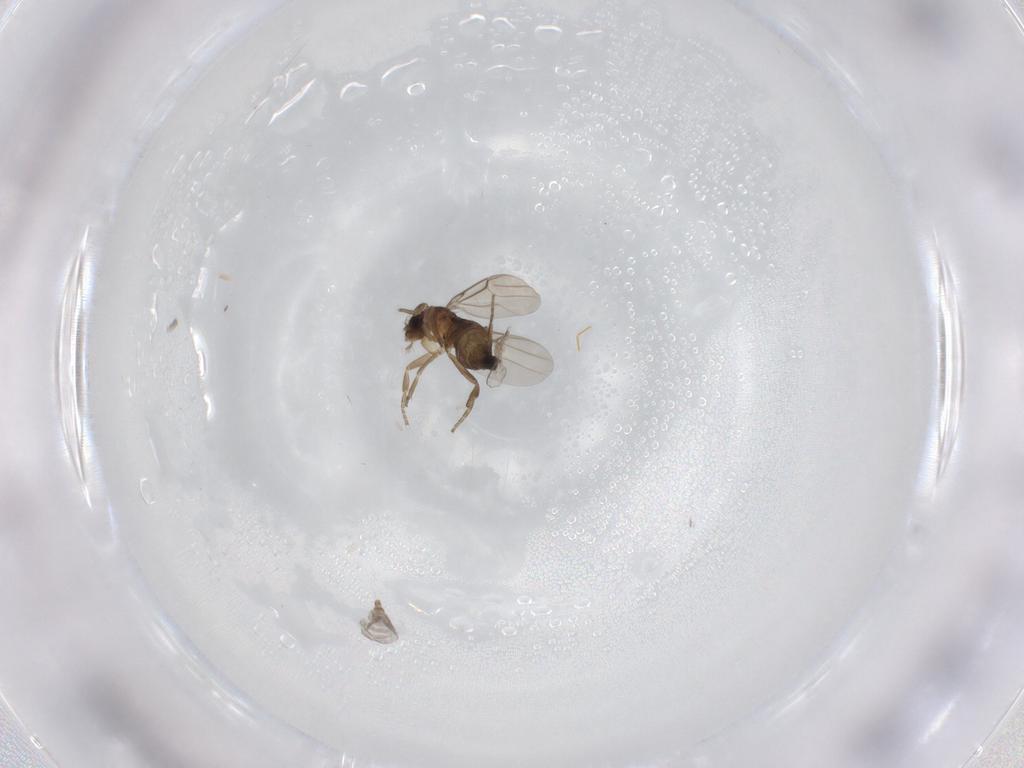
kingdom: Animalia
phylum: Arthropoda
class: Insecta
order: Diptera
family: Phoridae
